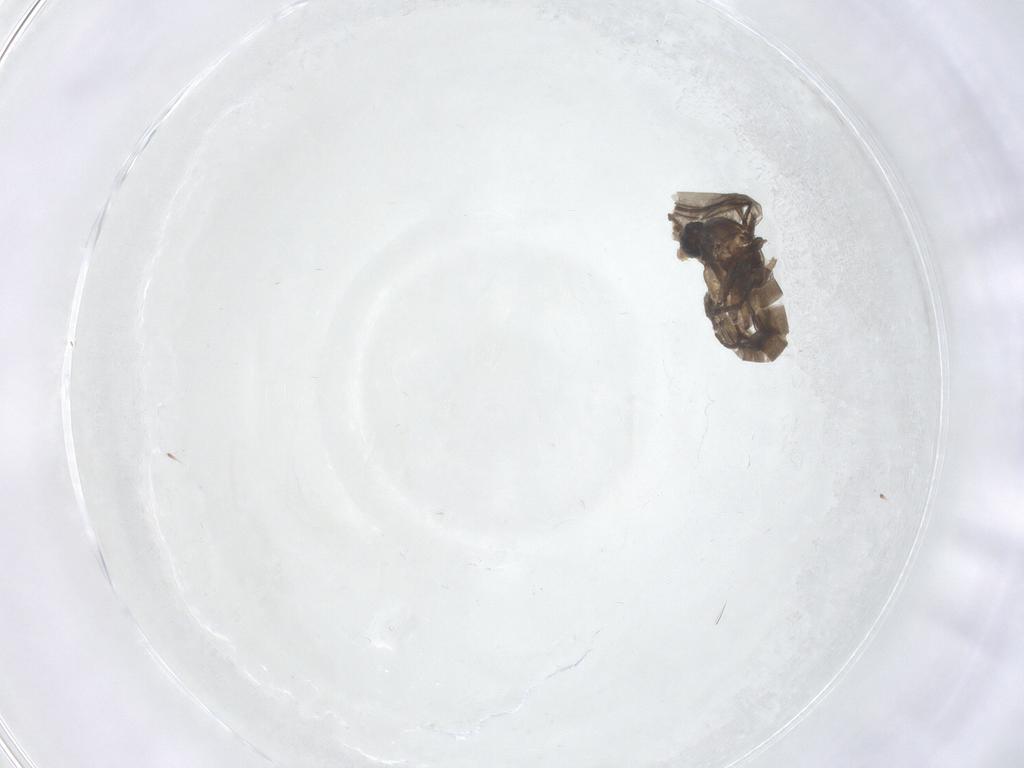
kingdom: Animalia
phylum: Arthropoda
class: Insecta
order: Diptera
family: Cecidomyiidae
